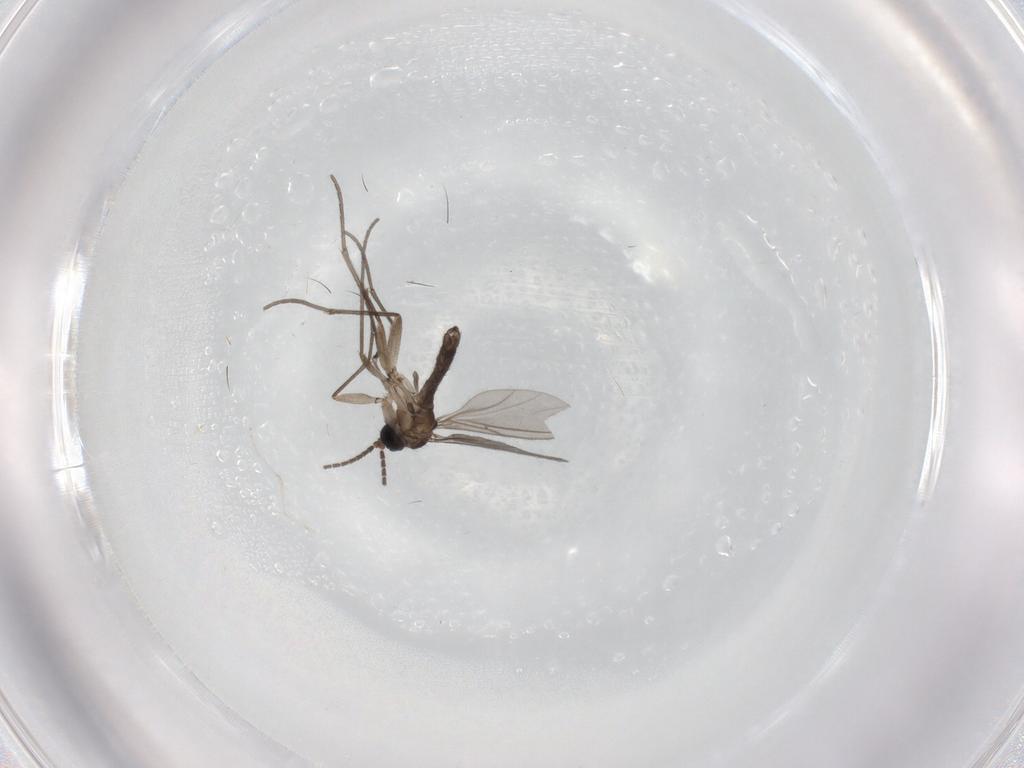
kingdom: Animalia
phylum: Arthropoda
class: Insecta
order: Diptera
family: Sciaridae
